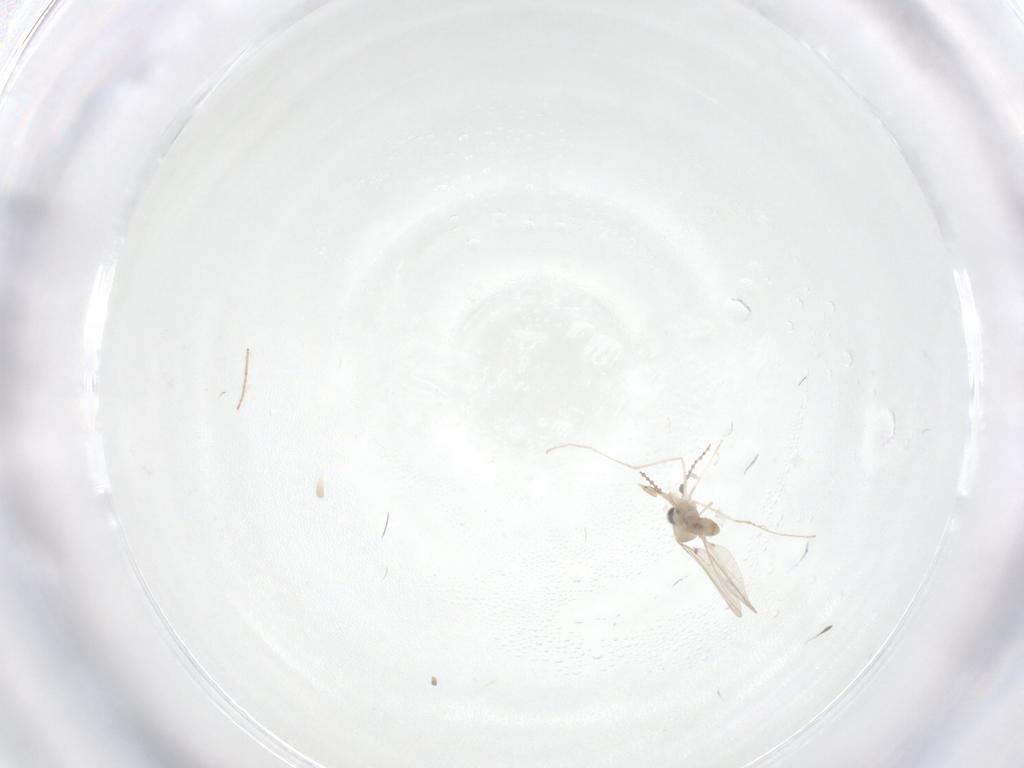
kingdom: Animalia
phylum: Arthropoda
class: Insecta
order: Diptera
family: Cecidomyiidae
